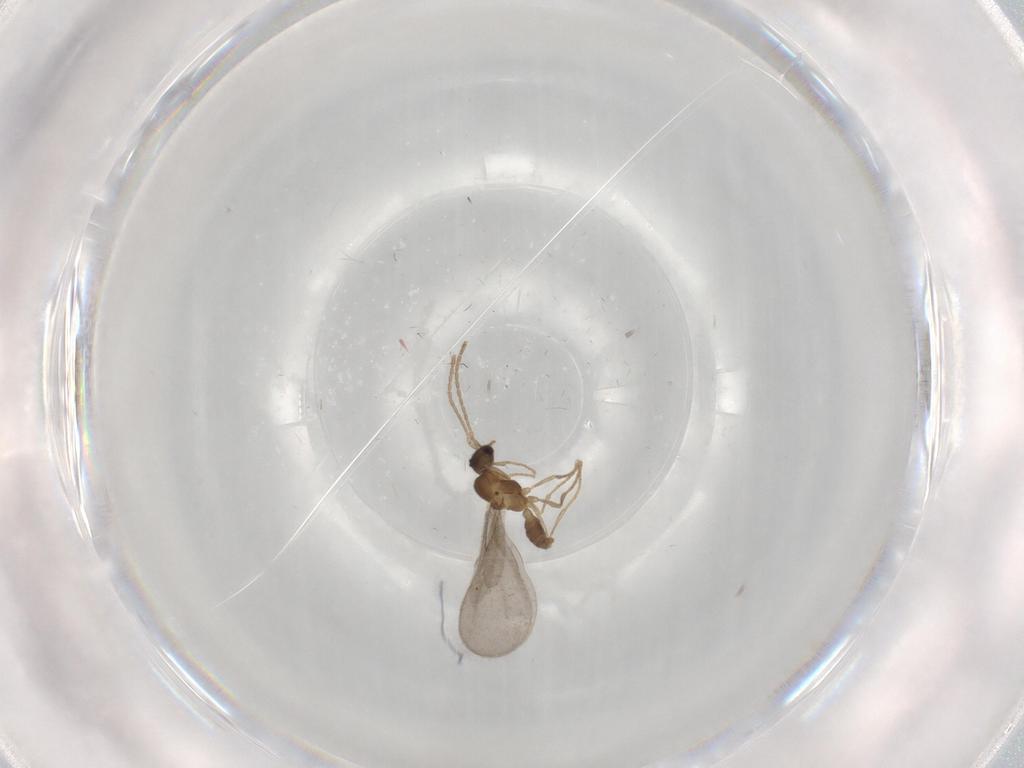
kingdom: Animalia
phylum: Arthropoda
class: Insecta
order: Hymenoptera
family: Formicidae
